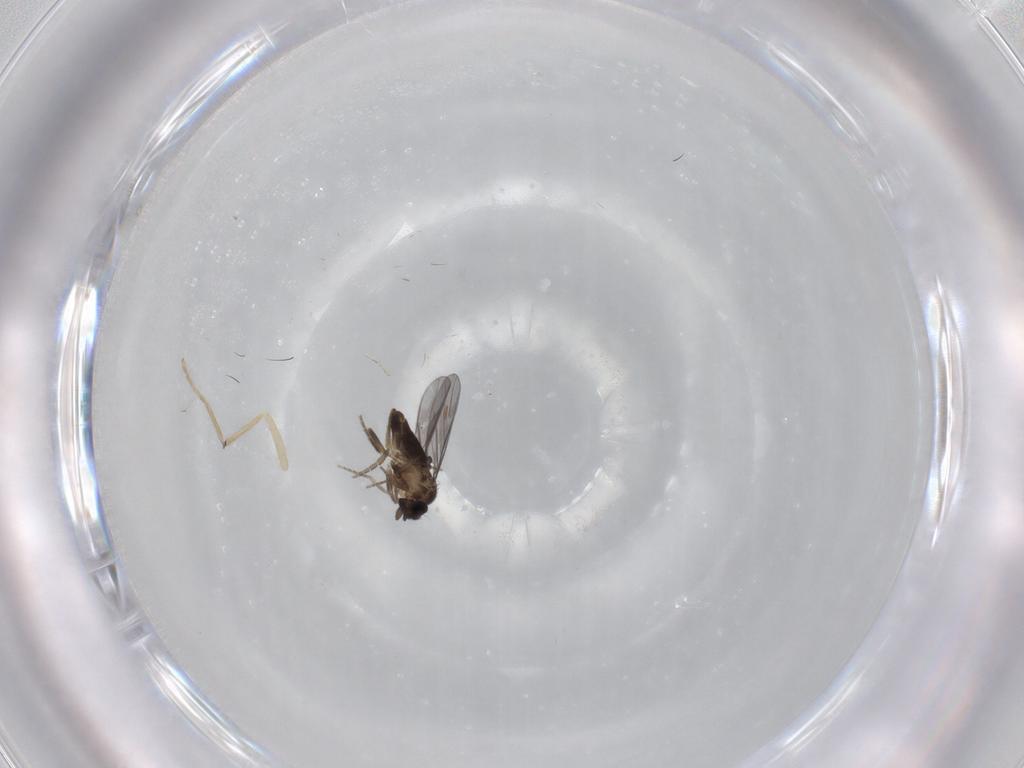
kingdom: Animalia
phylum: Arthropoda
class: Insecta
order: Diptera
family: Cecidomyiidae
